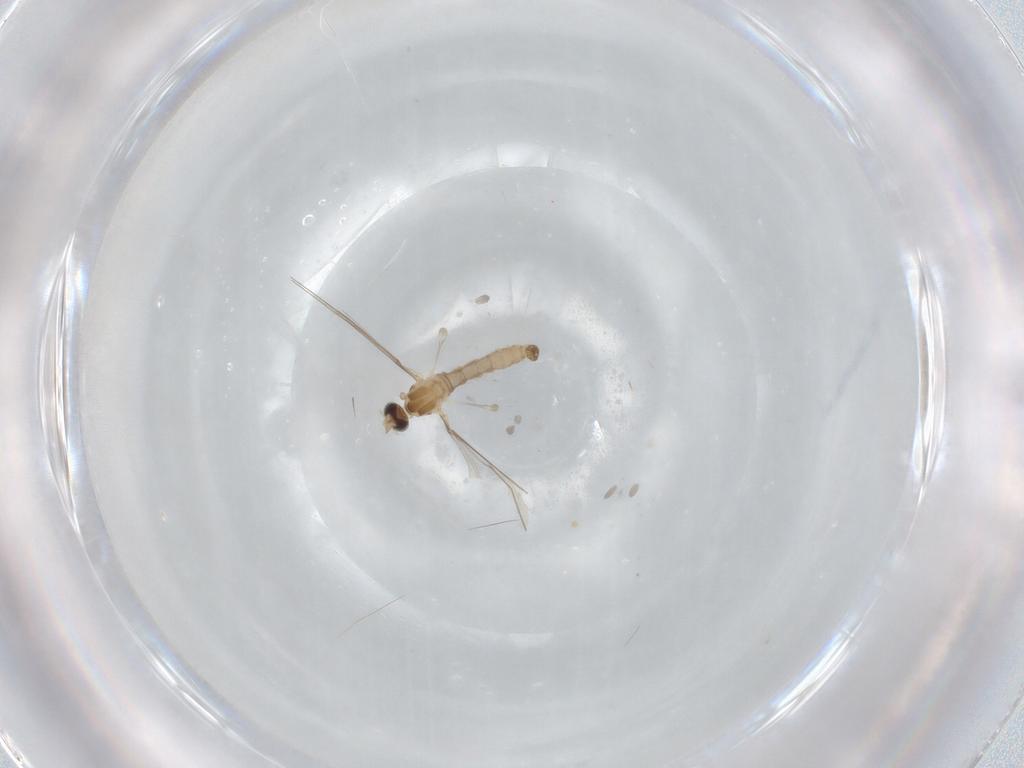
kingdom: Animalia
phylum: Arthropoda
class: Insecta
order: Diptera
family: Cecidomyiidae
